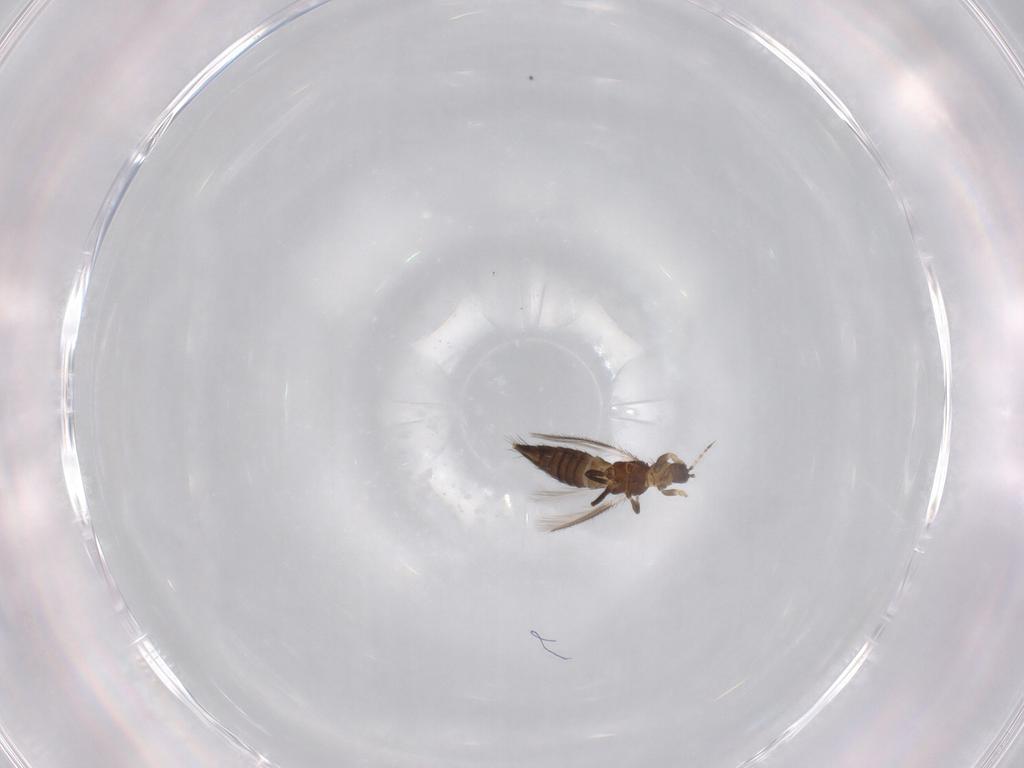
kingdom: Animalia
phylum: Arthropoda
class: Insecta
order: Thysanoptera
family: Thripidae
